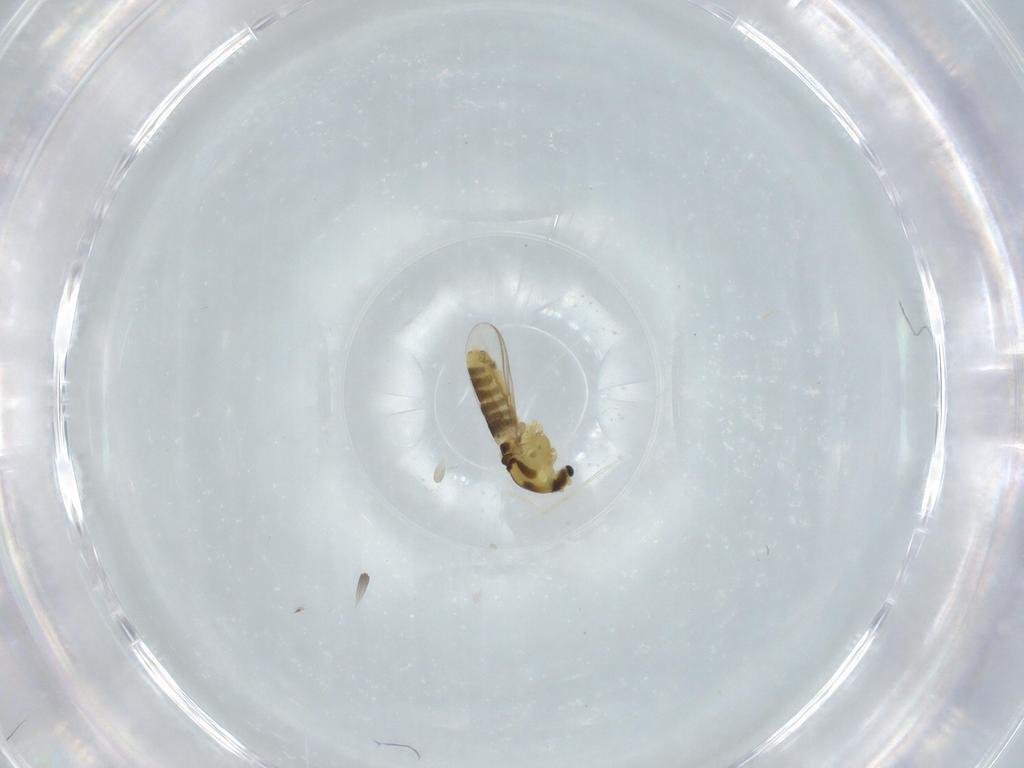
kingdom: Animalia
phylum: Arthropoda
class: Insecta
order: Diptera
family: Chironomidae
